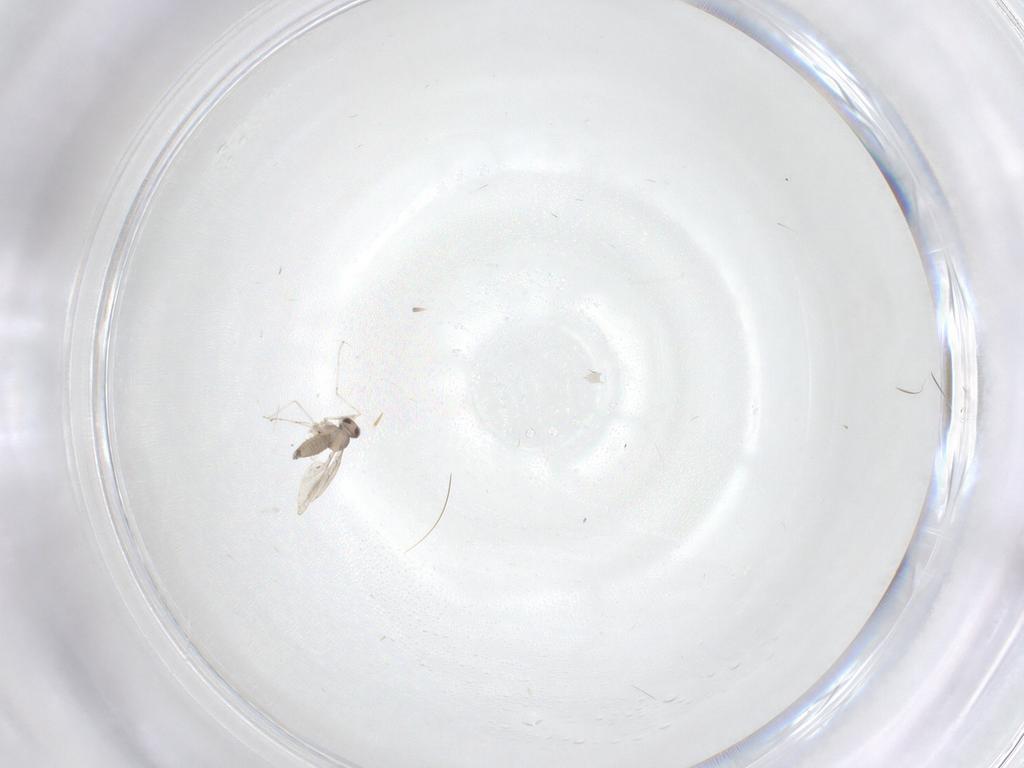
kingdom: Animalia
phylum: Arthropoda
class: Insecta
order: Diptera
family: Cecidomyiidae
